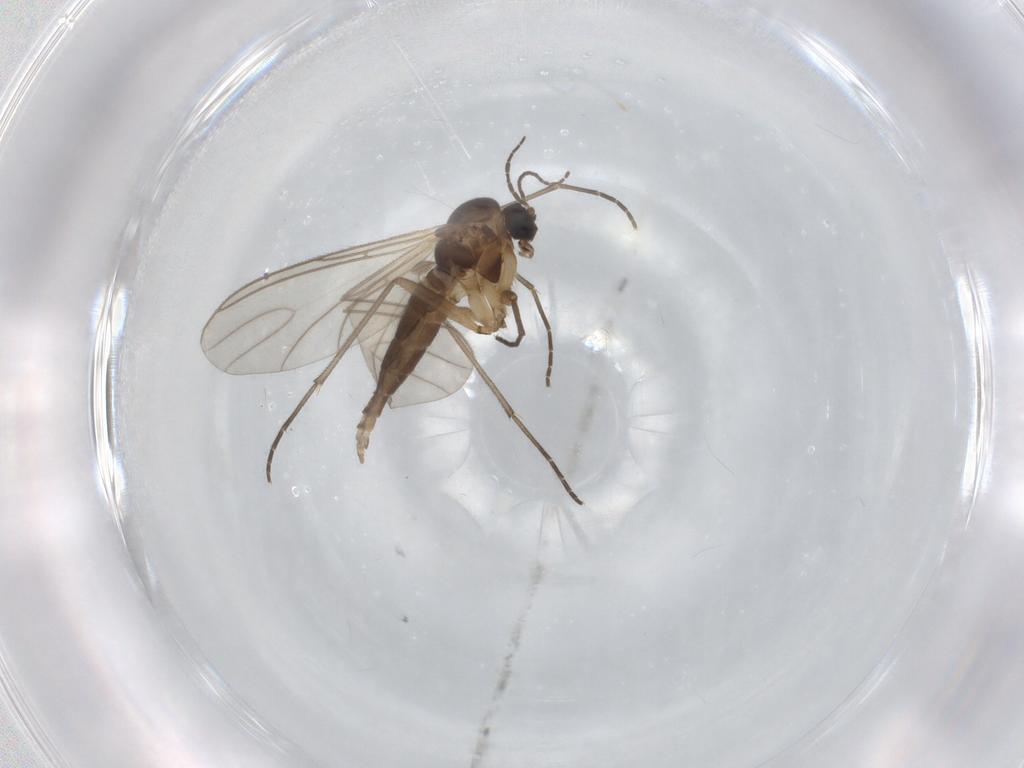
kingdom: Animalia
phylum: Arthropoda
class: Insecta
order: Diptera
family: Sciaridae
